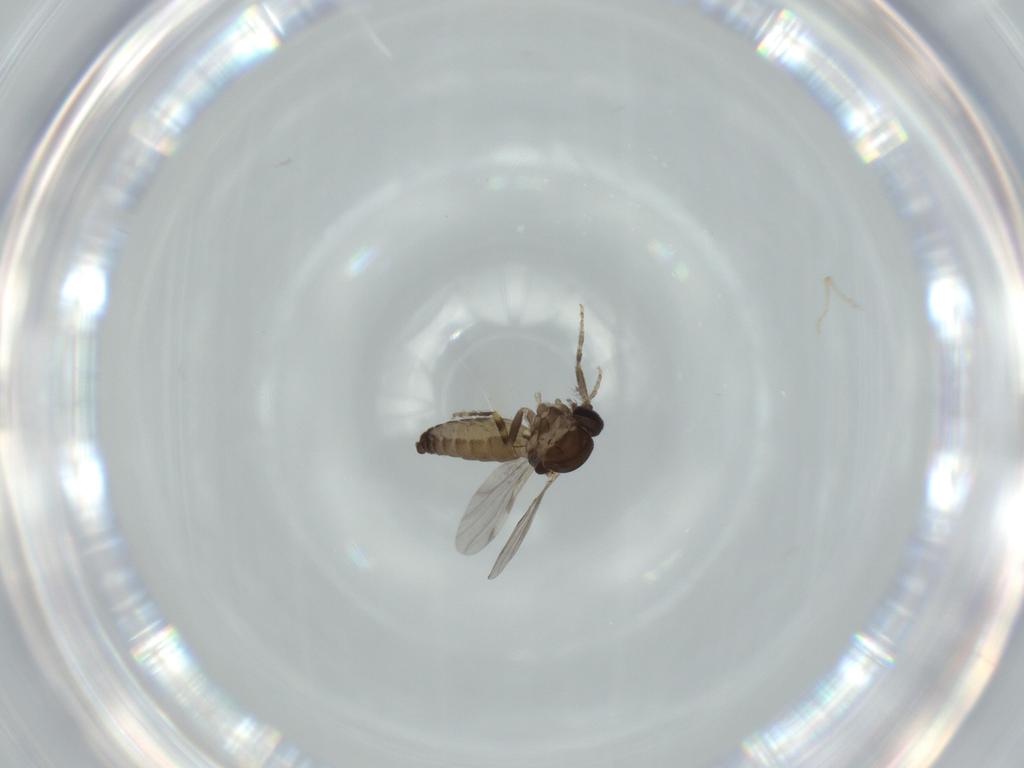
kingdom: Animalia
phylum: Arthropoda
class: Insecta
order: Diptera
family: Ceratopogonidae
